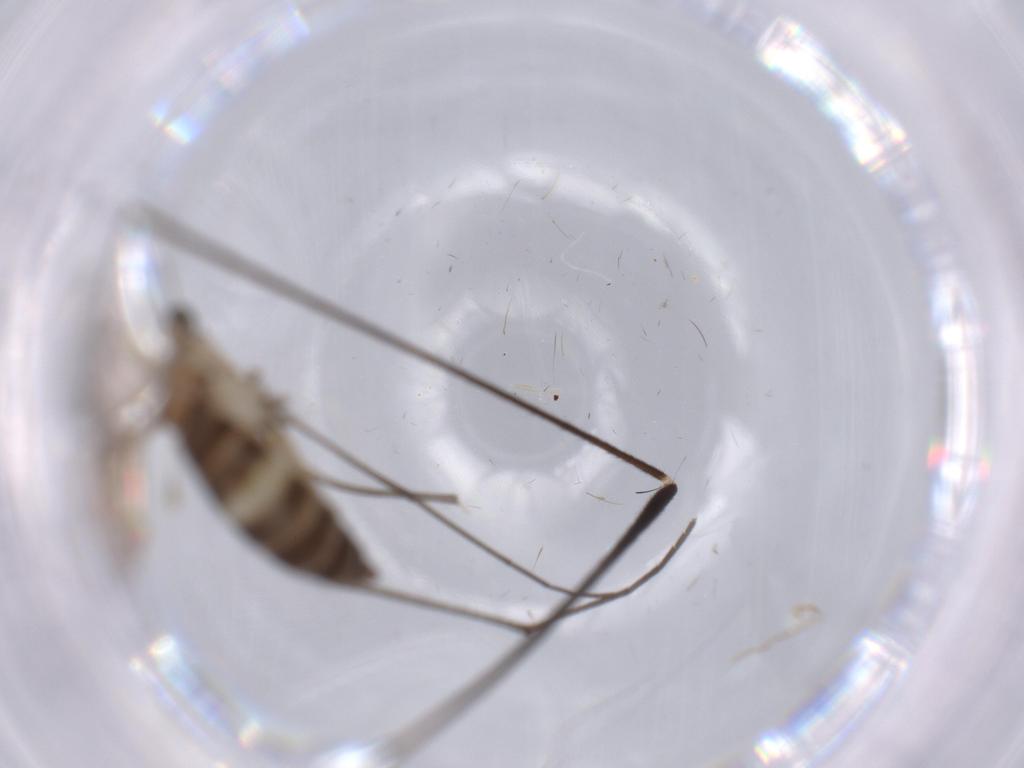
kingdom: Animalia
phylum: Arthropoda
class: Insecta
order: Diptera
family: Sciaridae
